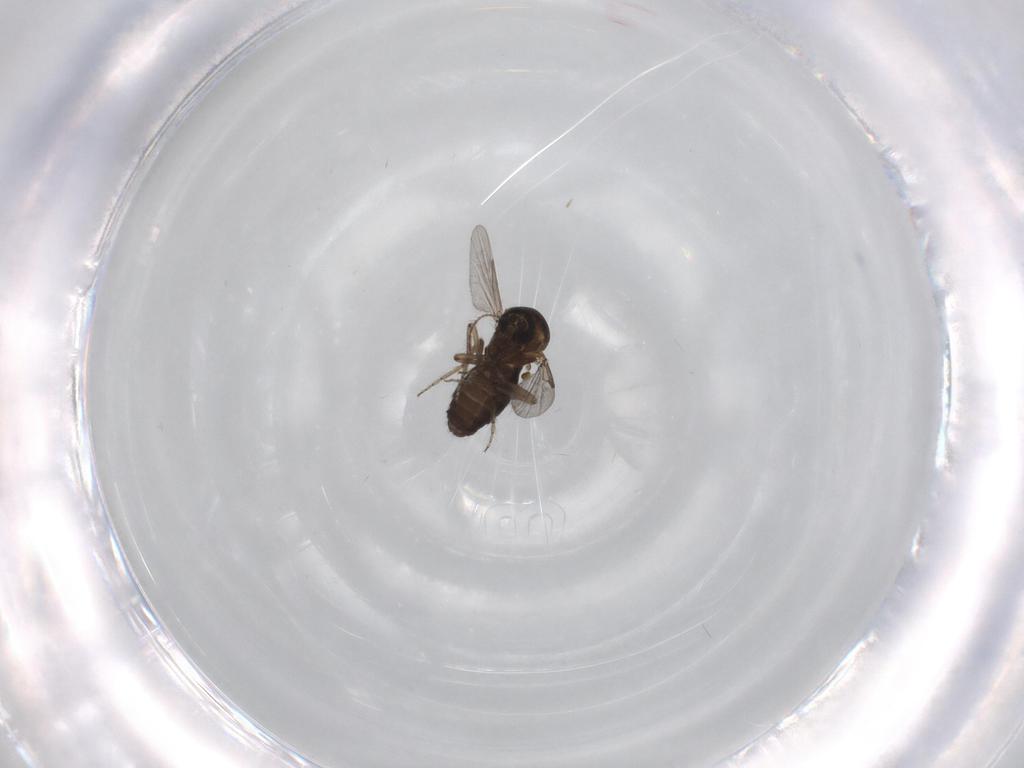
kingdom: Animalia
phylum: Arthropoda
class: Insecta
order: Diptera
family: Ceratopogonidae
